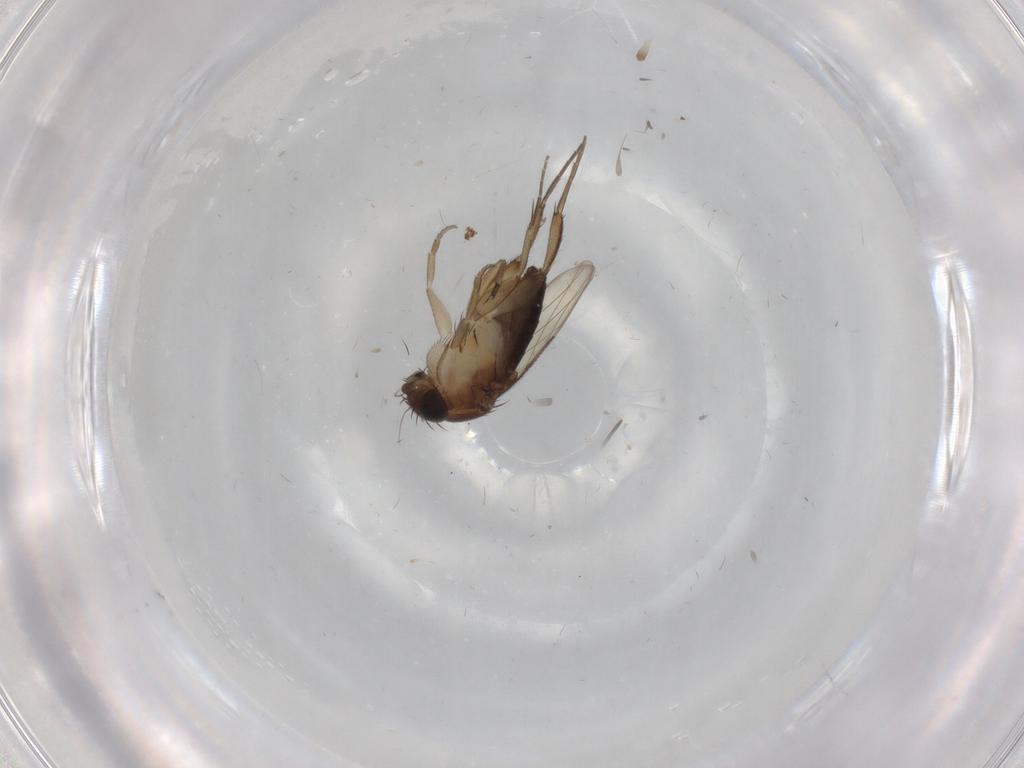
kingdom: Animalia
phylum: Arthropoda
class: Insecta
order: Diptera
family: Phoridae
